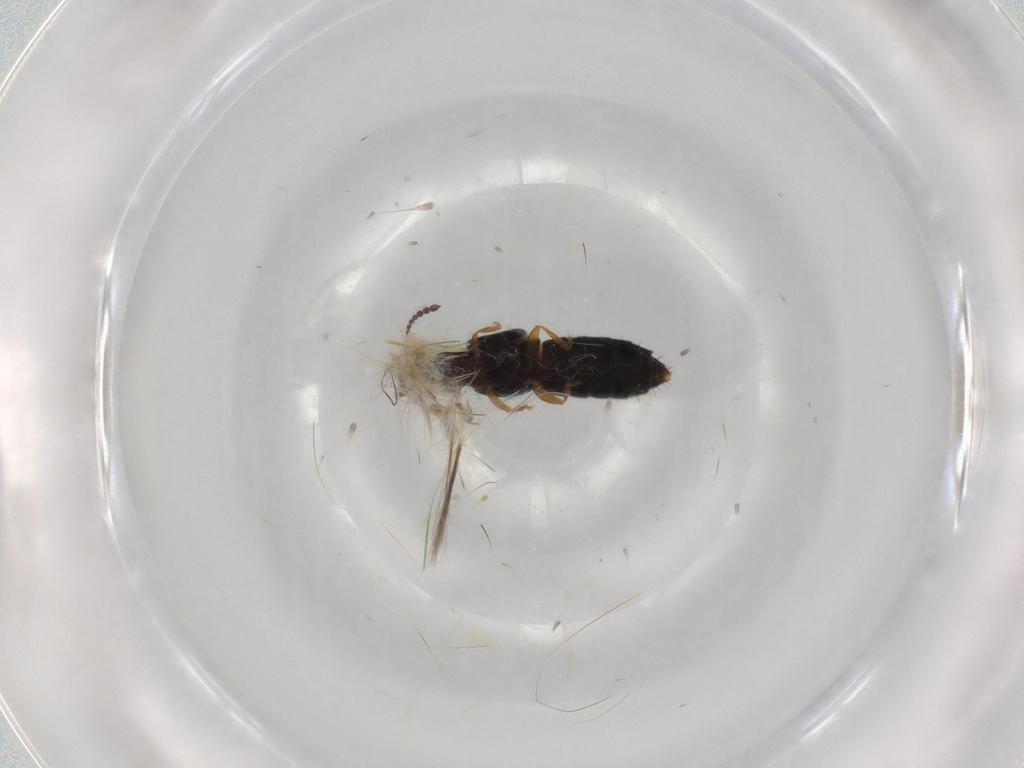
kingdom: Animalia
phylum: Arthropoda
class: Insecta
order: Coleoptera
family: Staphylinidae
